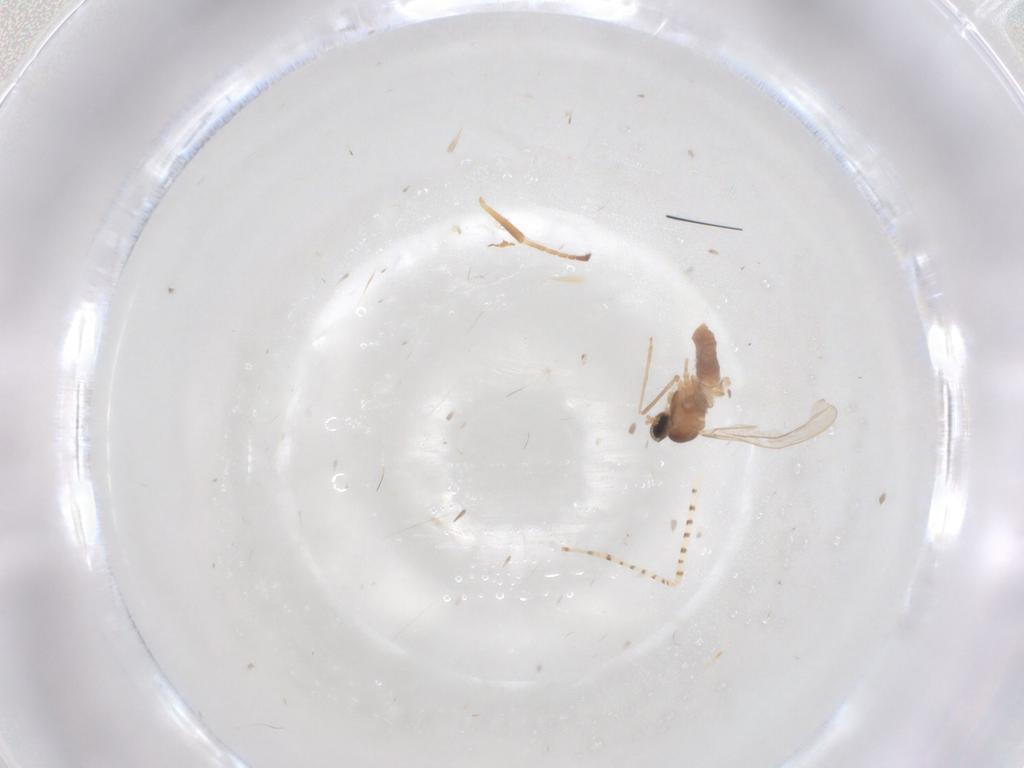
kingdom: Animalia
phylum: Arthropoda
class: Insecta
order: Diptera
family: Cecidomyiidae
